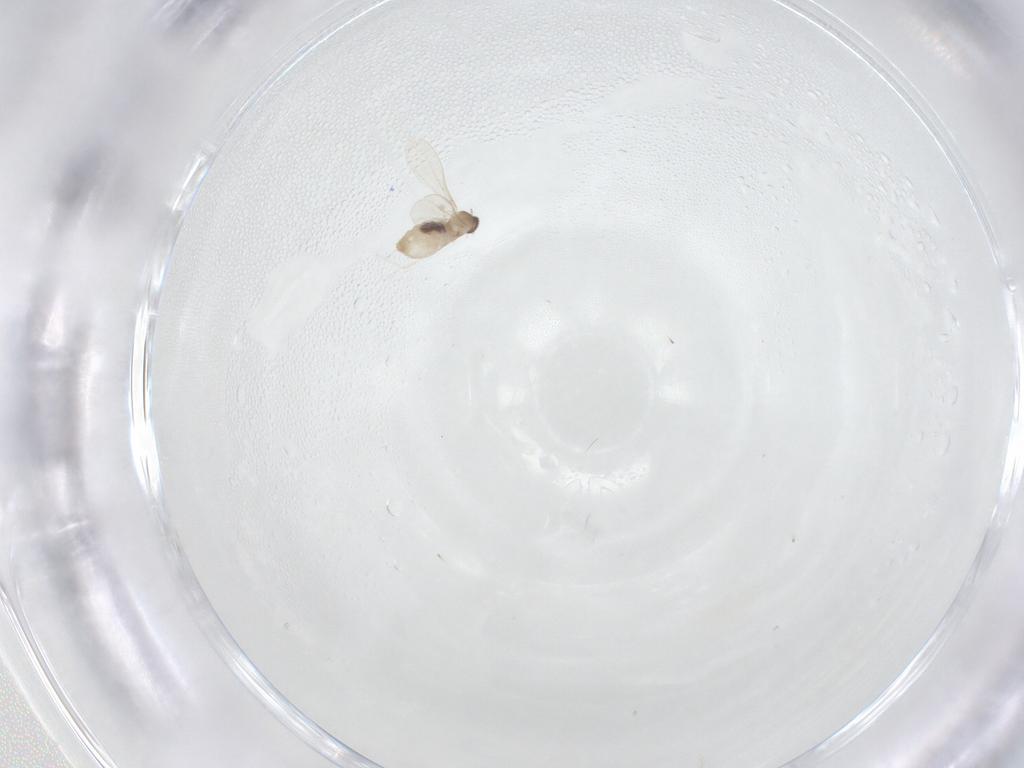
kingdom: Animalia
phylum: Arthropoda
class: Insecta
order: Diptera
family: Cecidomyiidae
